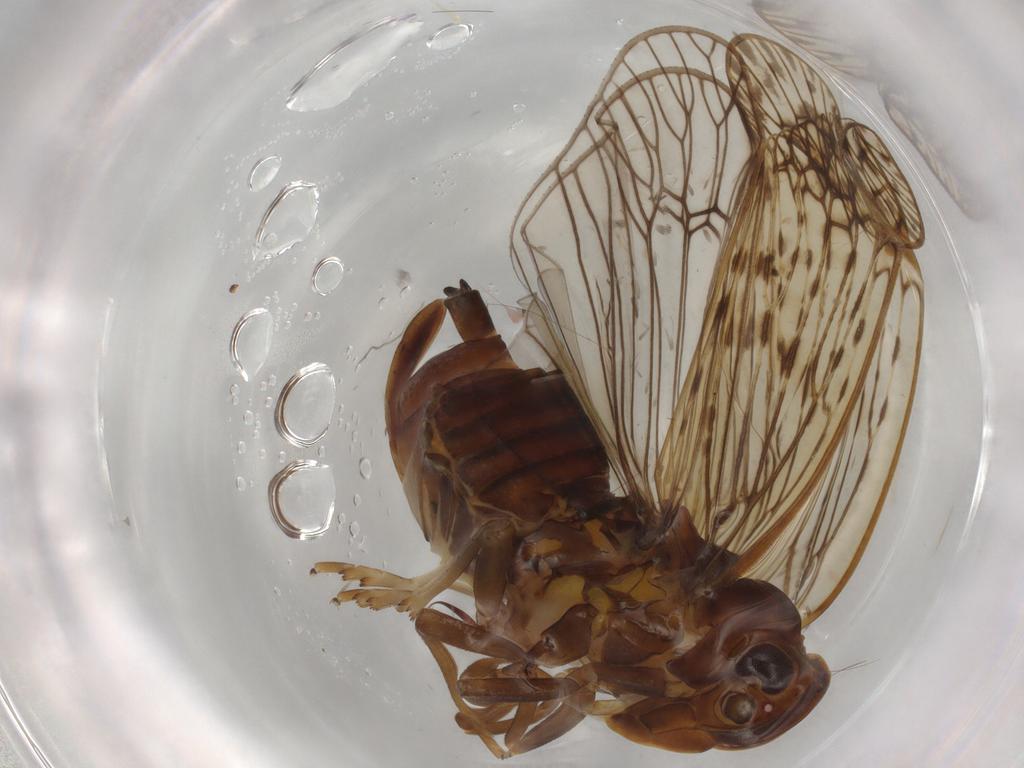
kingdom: Animalia
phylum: Arthropoda
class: Insecta
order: Hemiptera
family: Cixiidae
